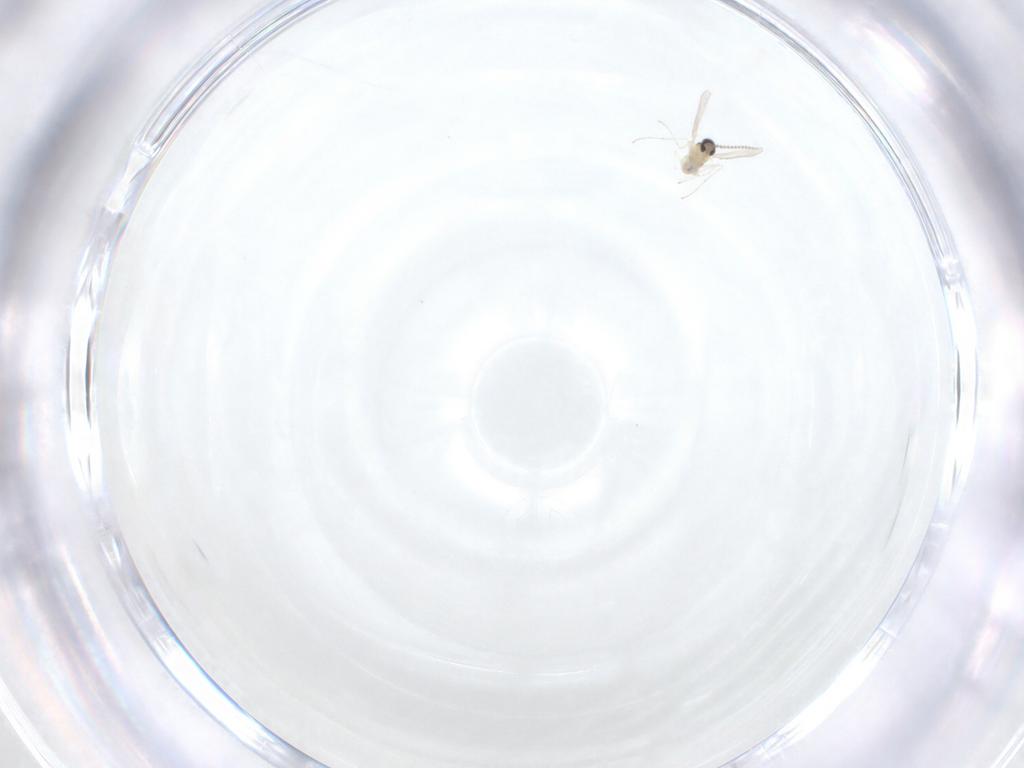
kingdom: Animalia
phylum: Arthropoda
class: Insecta
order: Diptera
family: Cecidomyiidae
